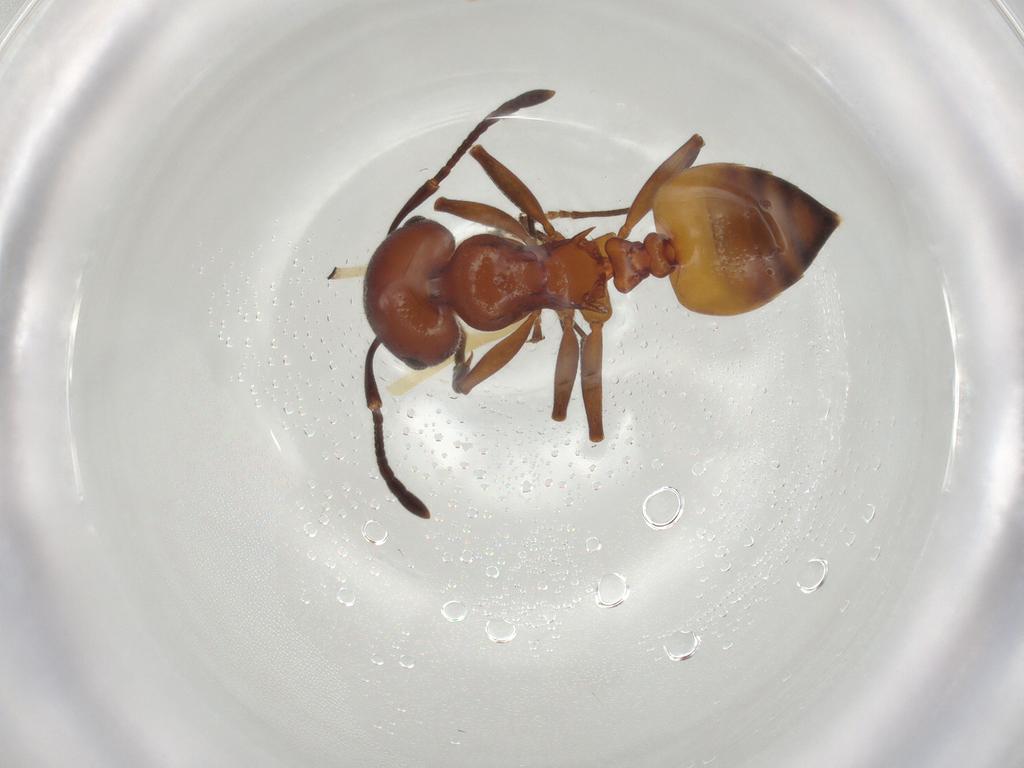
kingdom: Animalia
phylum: Arthropoda
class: Insecta
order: Hymenoptera
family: Formicidae
